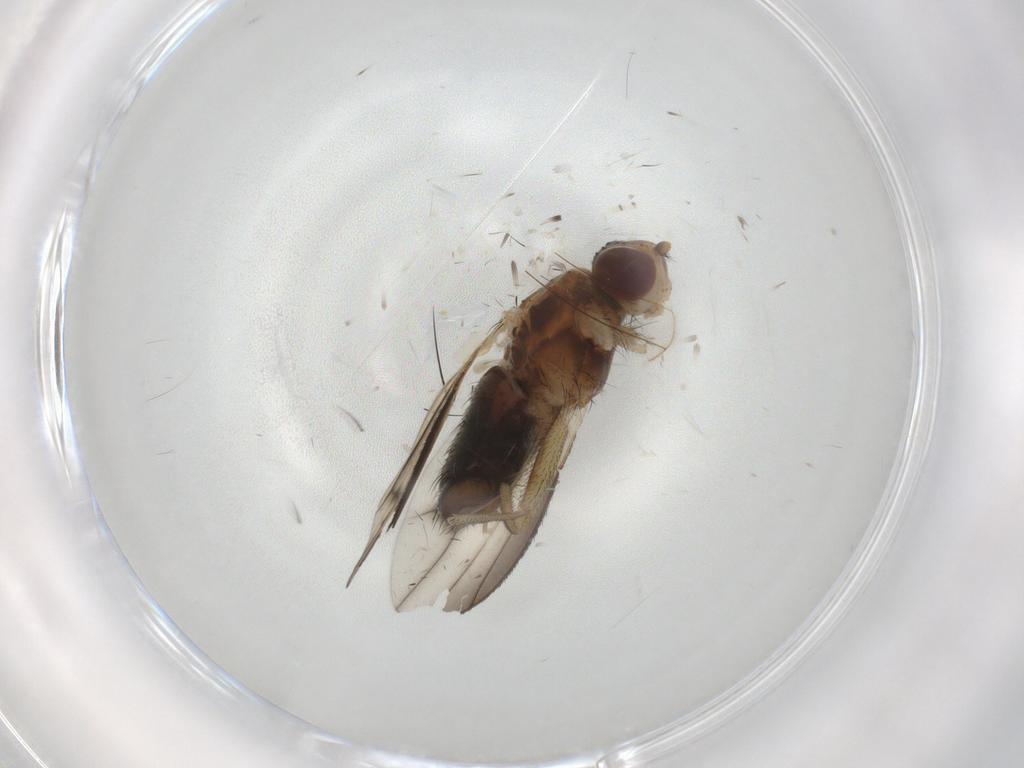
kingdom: Animalia
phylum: Arthropoda
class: Insecta
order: Diptera
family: Heleomyzidae
